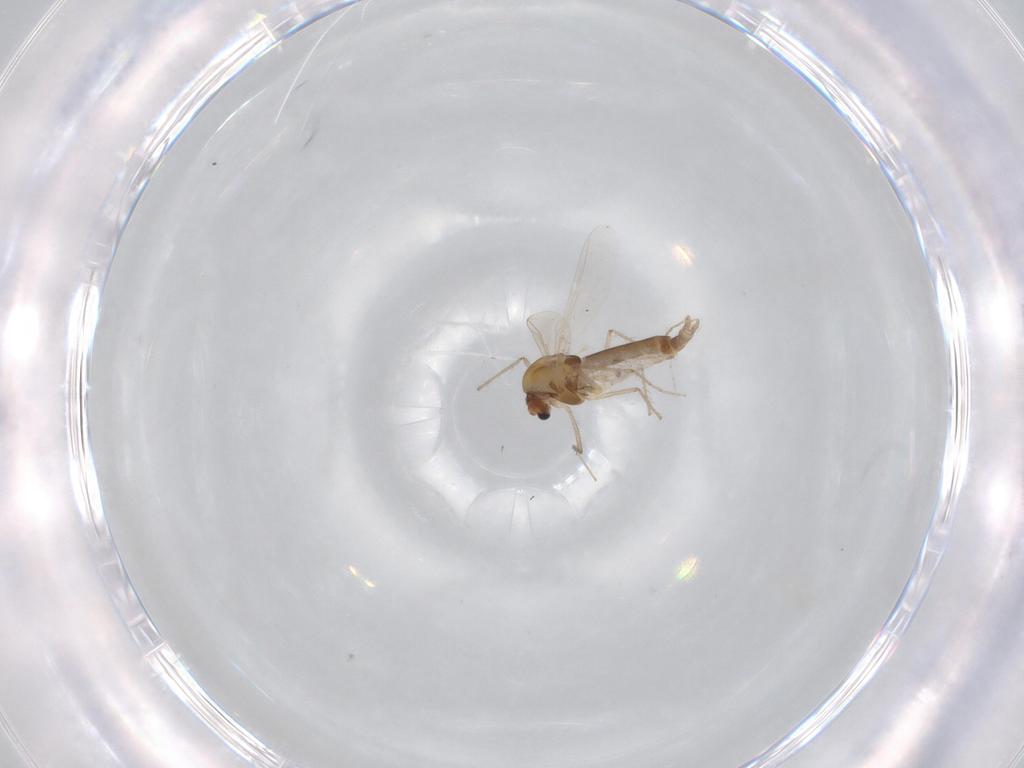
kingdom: Animalia
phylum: Arthropoda
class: Insecta
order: Diptera
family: Chironomidae
